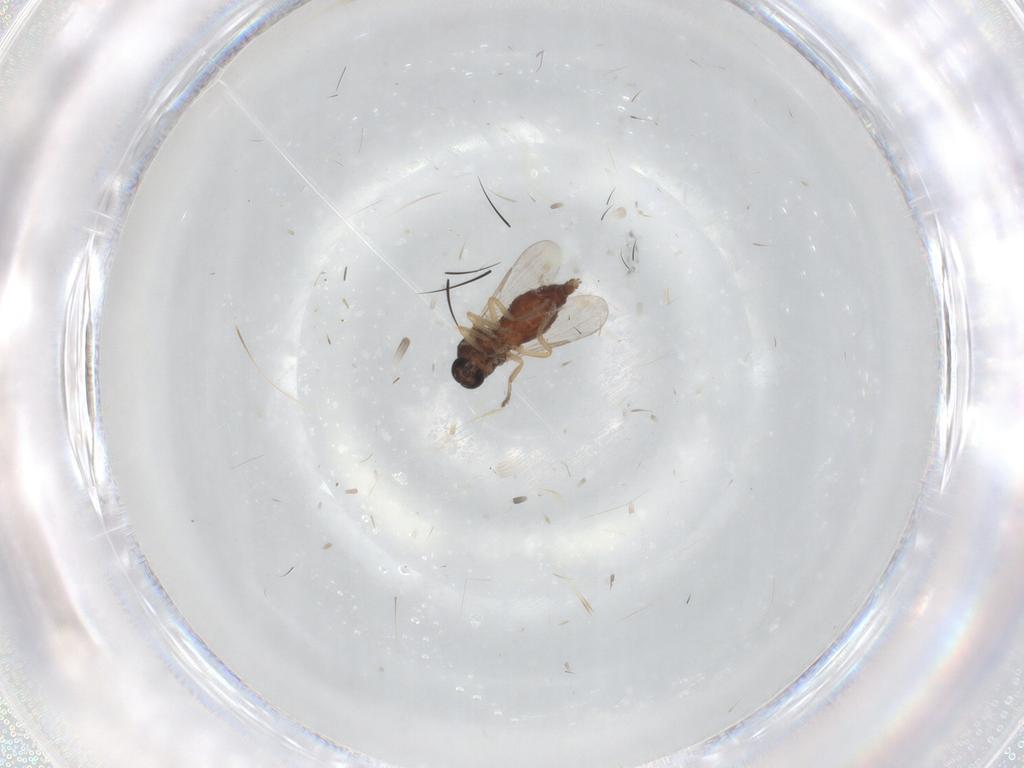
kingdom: Animalia
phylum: Arthropoda
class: Insecta
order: Diptera
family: Ceratopogonidae
